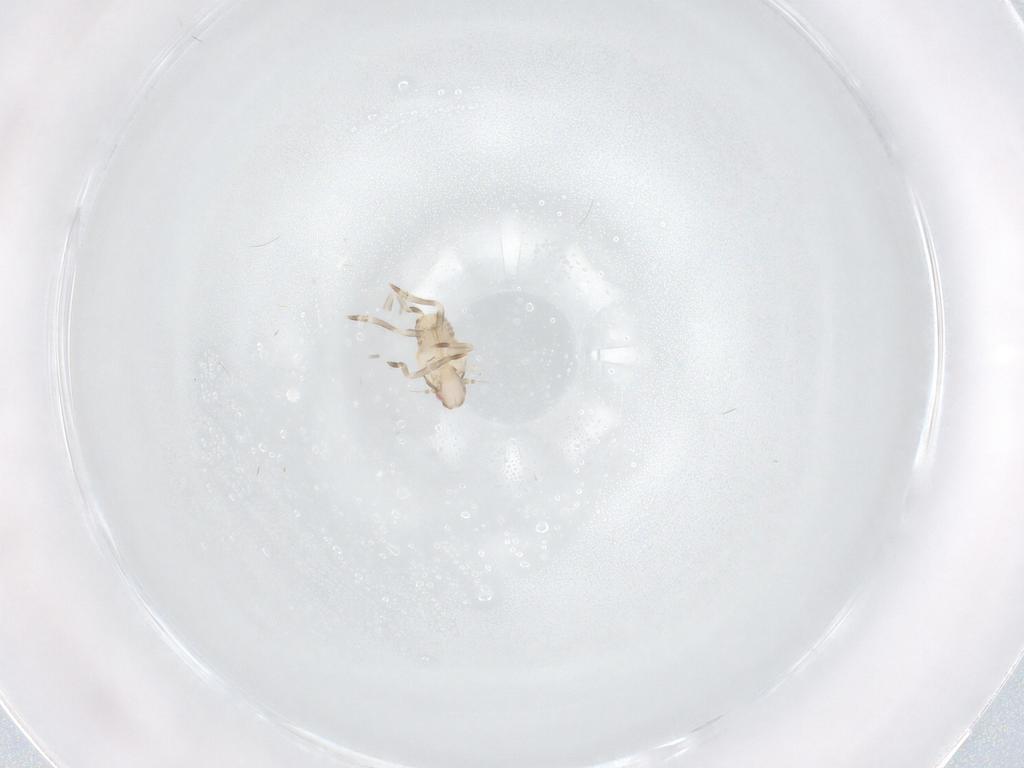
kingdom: Animalia
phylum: Arthropoda
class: Insecta
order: Hemiptera
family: Flatidae
